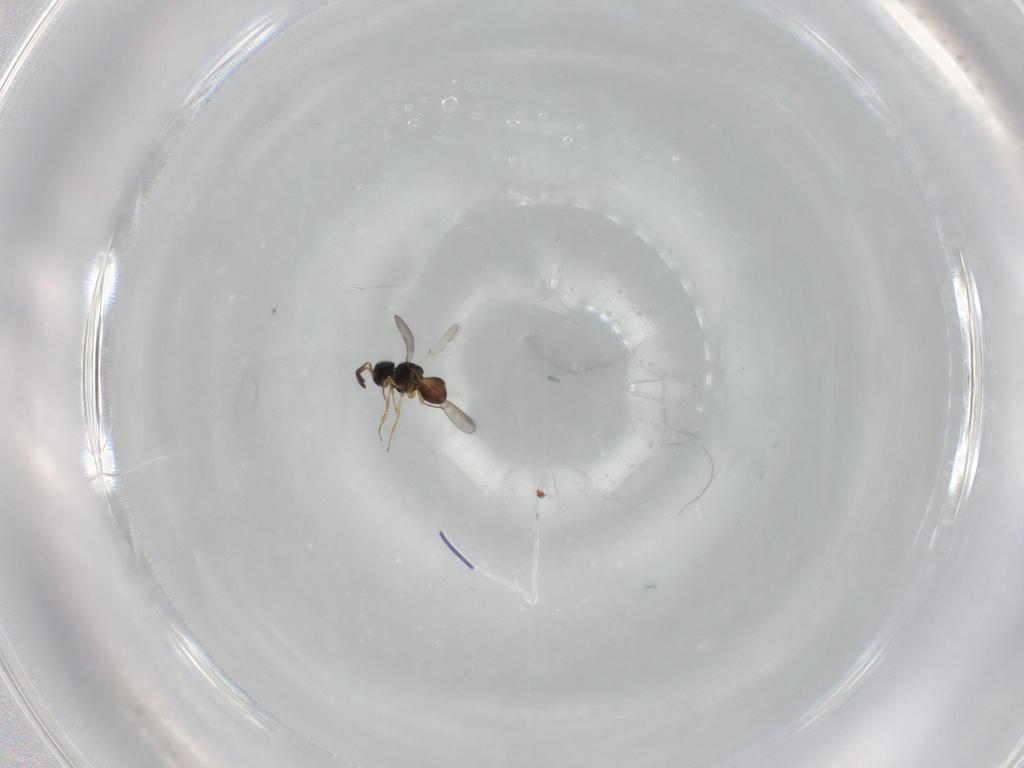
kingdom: Animalia
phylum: Arthropoda
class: Insecta
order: Hymenoptera
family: Scelionidae
